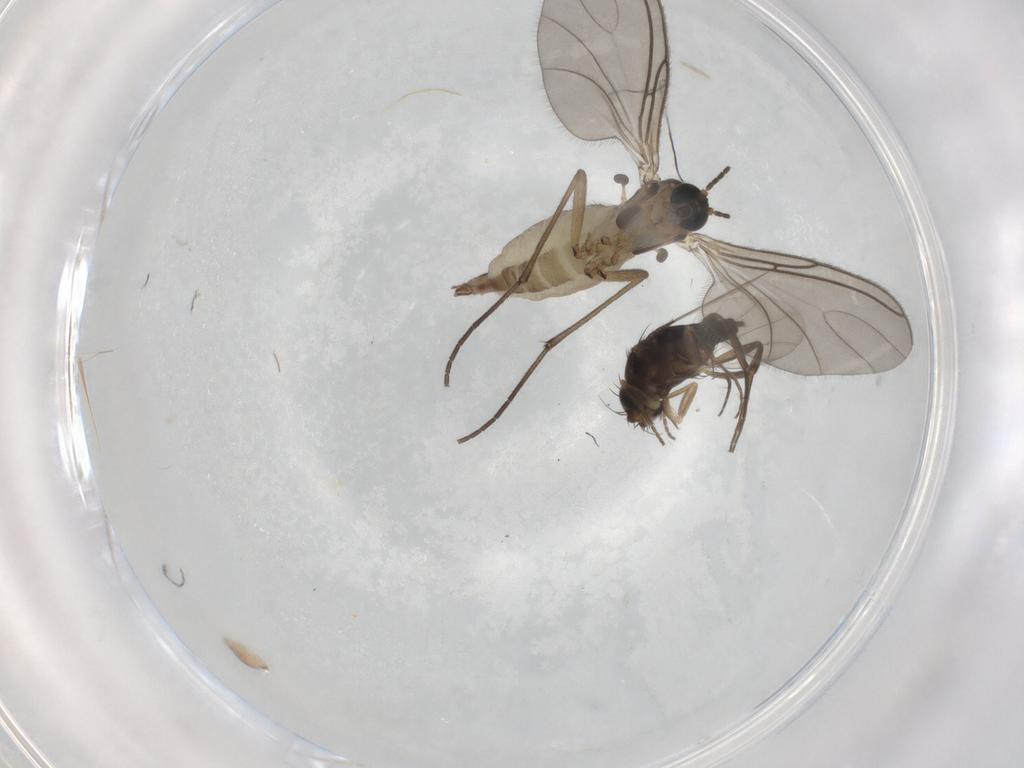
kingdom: Animalia
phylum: Arthropoda
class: Insecta
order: Diptera
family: Sciaridae
